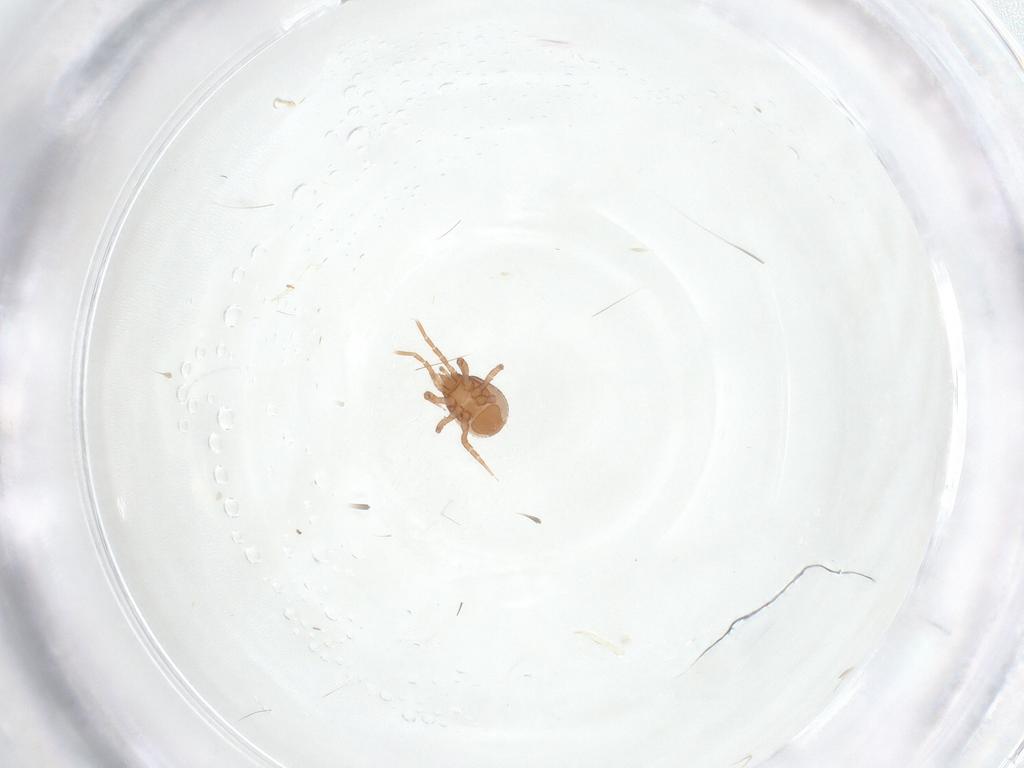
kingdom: Animalia
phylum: Arthropoda
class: Arachnida
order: Mesostigmata
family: Blattisociidae
